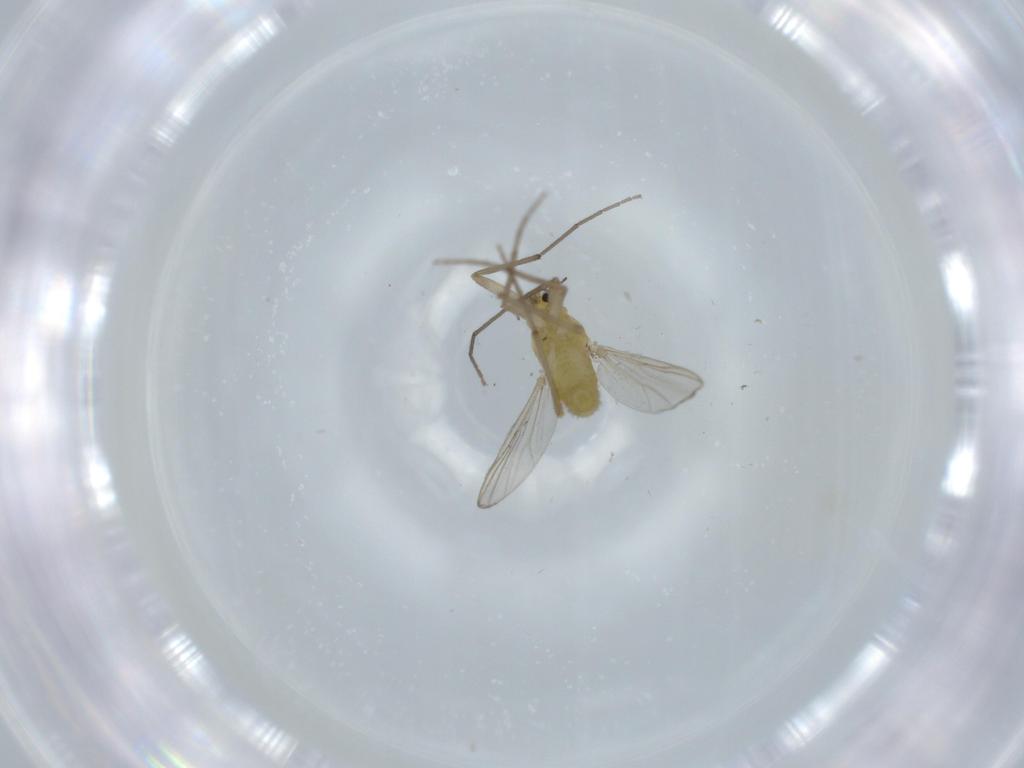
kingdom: Animalia
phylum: Arthropoda
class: Insecta
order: Diptera
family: Chironomidae
